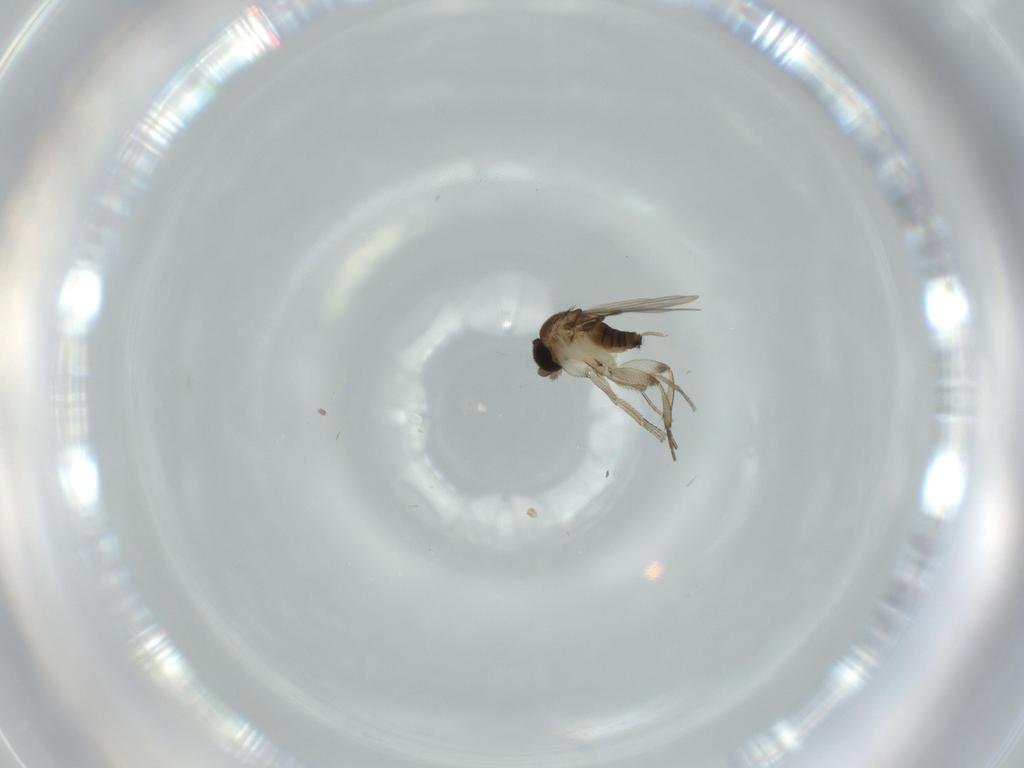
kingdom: Animalia
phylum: Arthropoda
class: Insecta
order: Diptera
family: Phoridae
